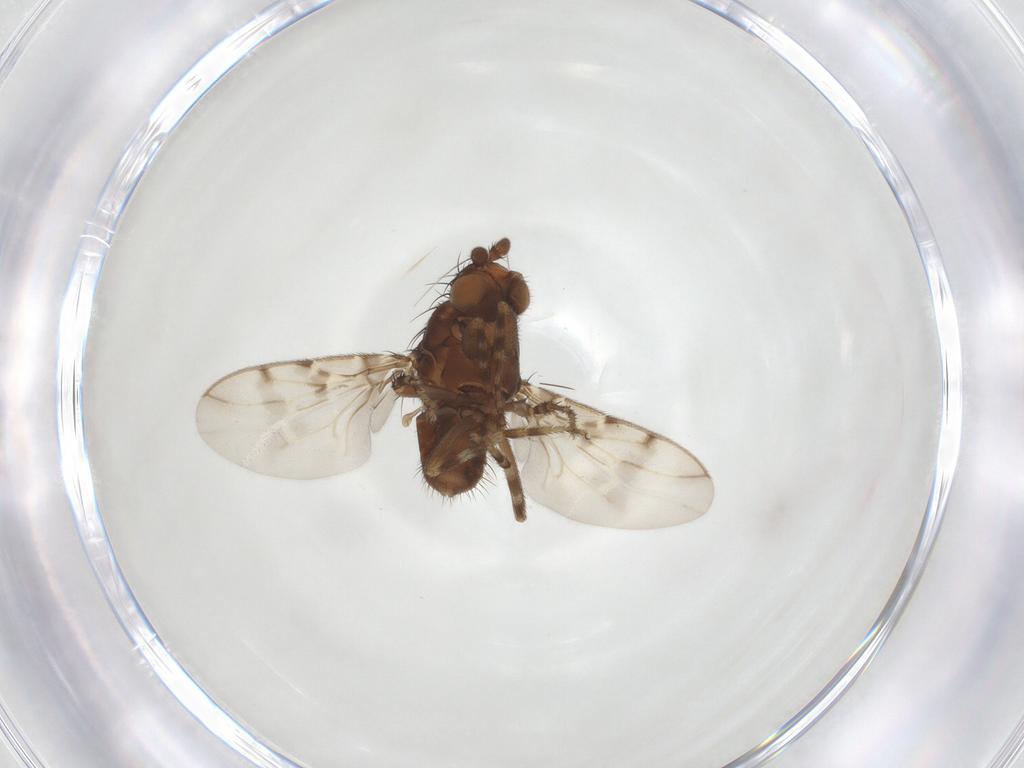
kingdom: Animalia
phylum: Arthropoda
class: Insecta
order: Diptera
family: Sphaeroceridae
